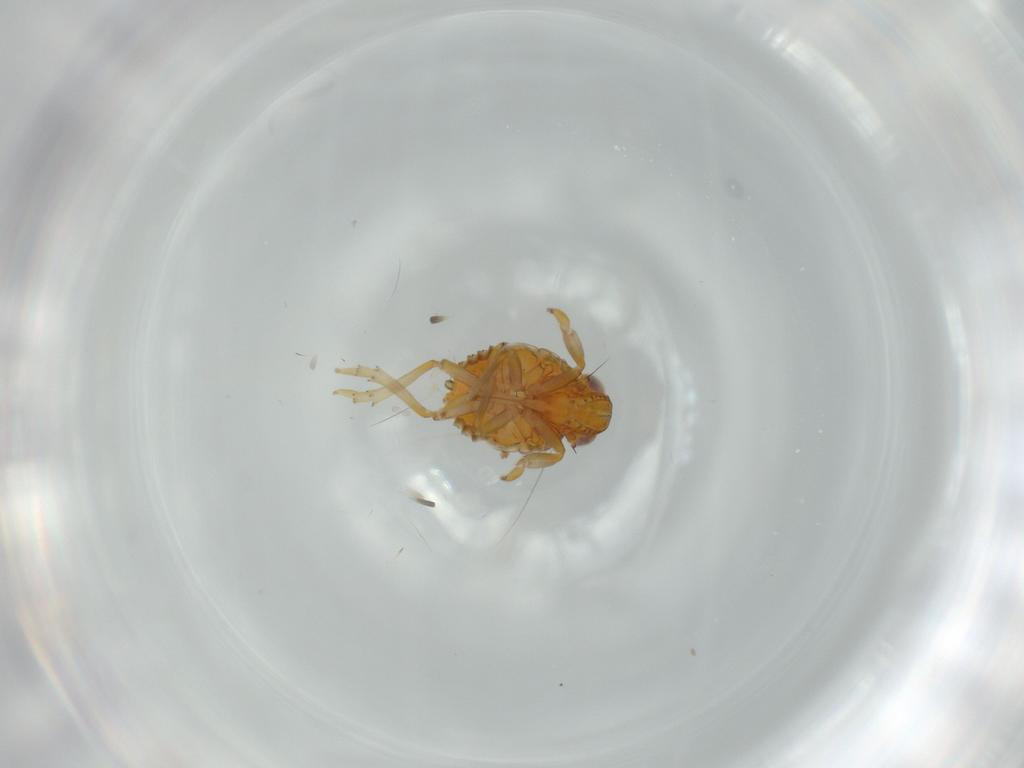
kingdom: Animalia
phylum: Arthropoda
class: Insecta
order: Hemiptera
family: Issidae
